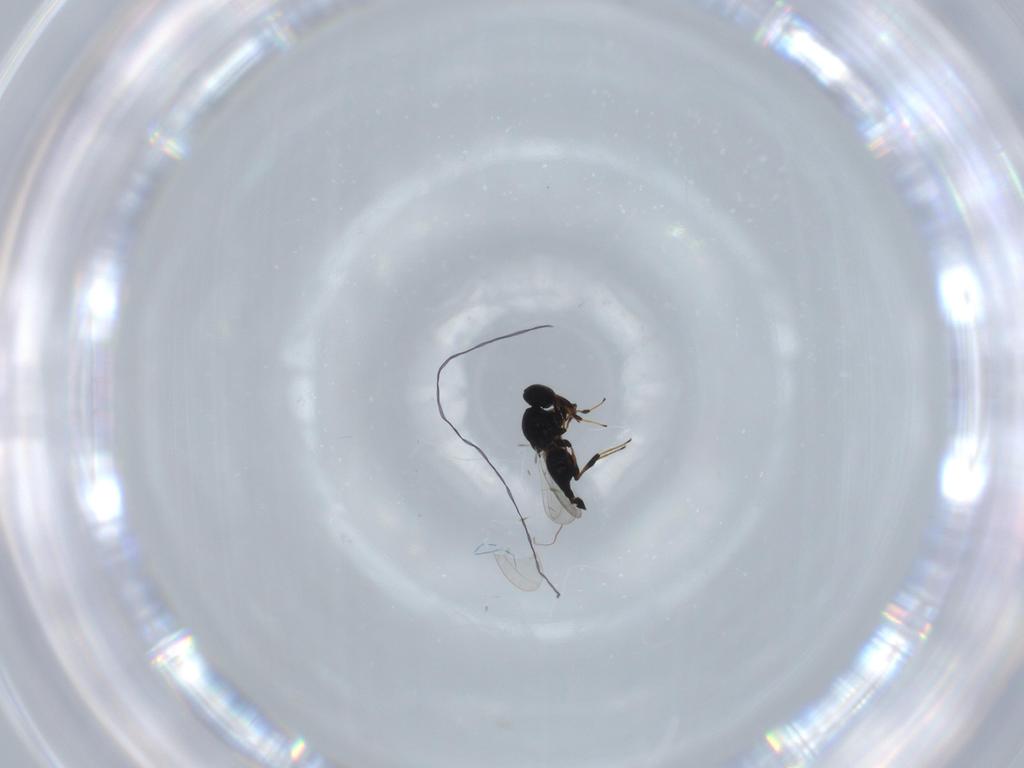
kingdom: Animalia
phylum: Arthropoda
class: Insecta
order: Hymenoptera
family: Platygastridae
